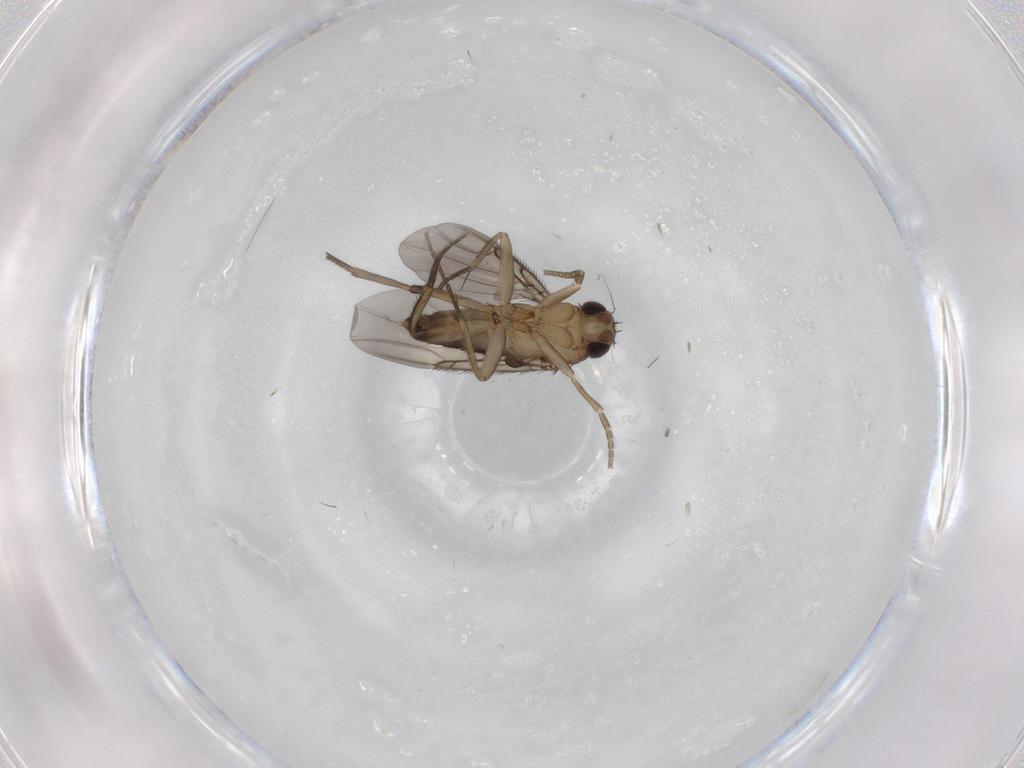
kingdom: Animalia
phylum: Arthropoda
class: Insecta
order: Diptera
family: Phoridae
